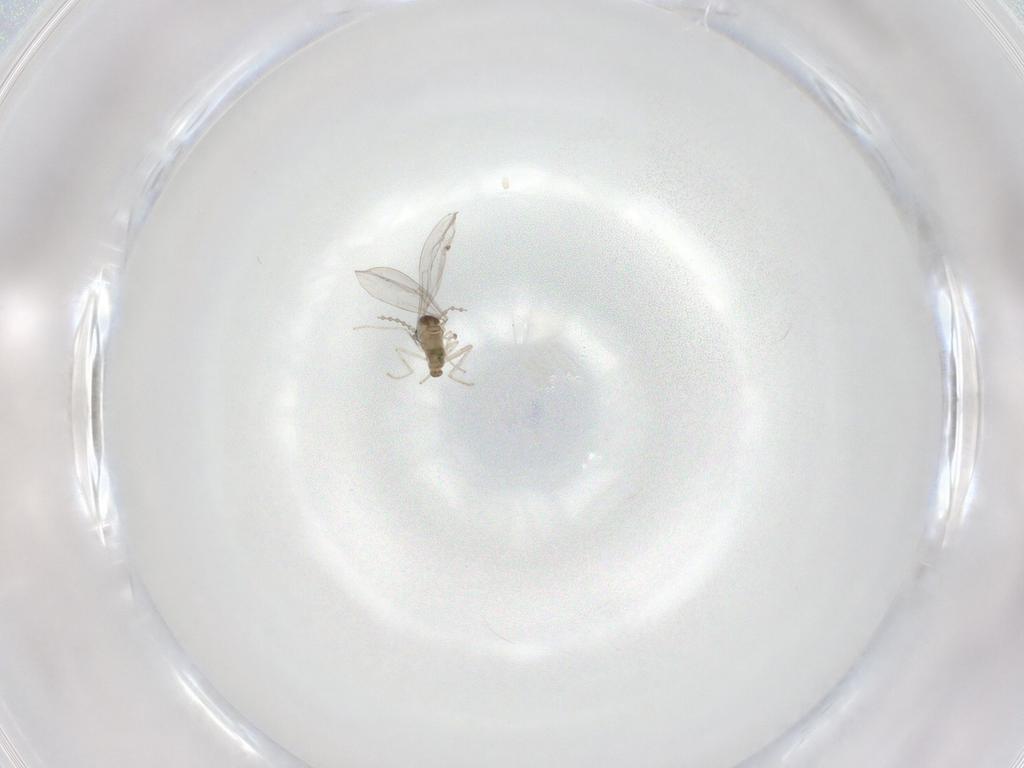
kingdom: Animalia
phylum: Arthropoda
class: Insecta
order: Diptera
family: Cecidomyiidae
